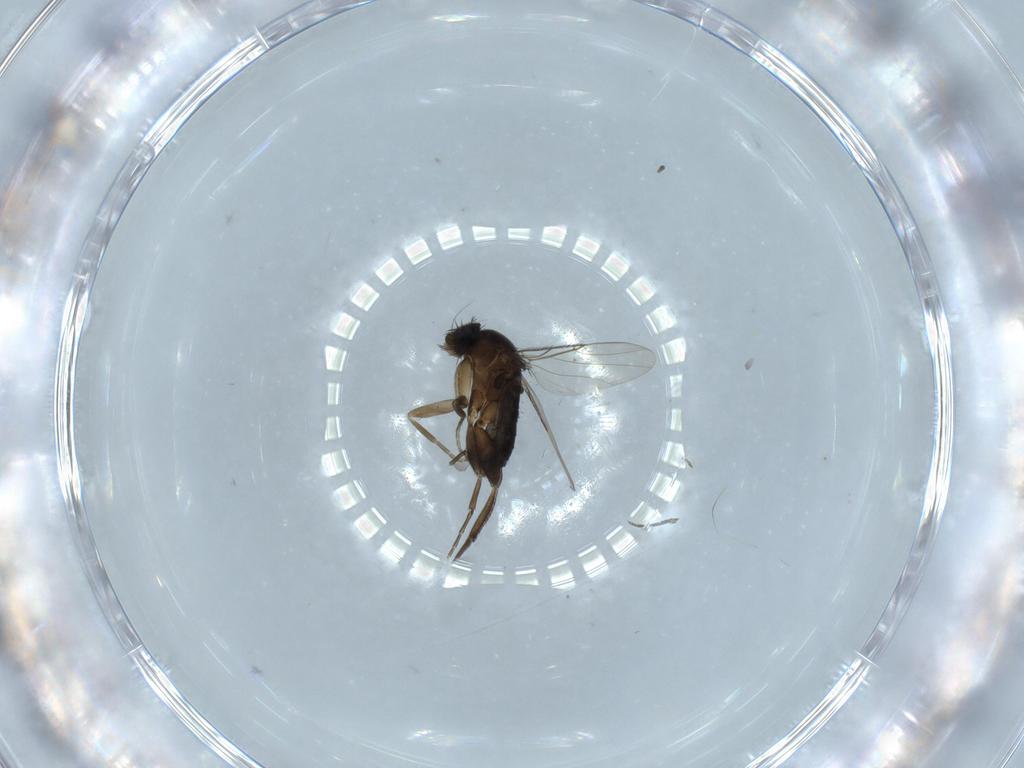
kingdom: Animalia
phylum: Arthropoda
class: Insecta
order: Diptera
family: Phoridae
